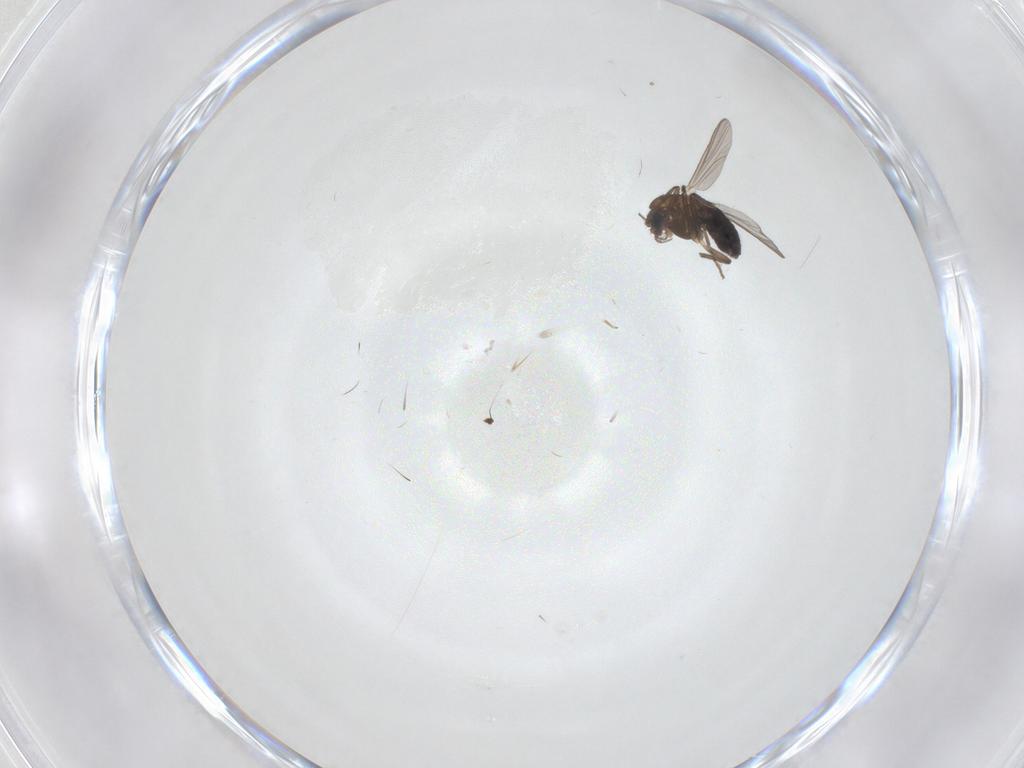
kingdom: Animalia
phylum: Arthropoda
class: Insecta
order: Diptera
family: Chironomidae
